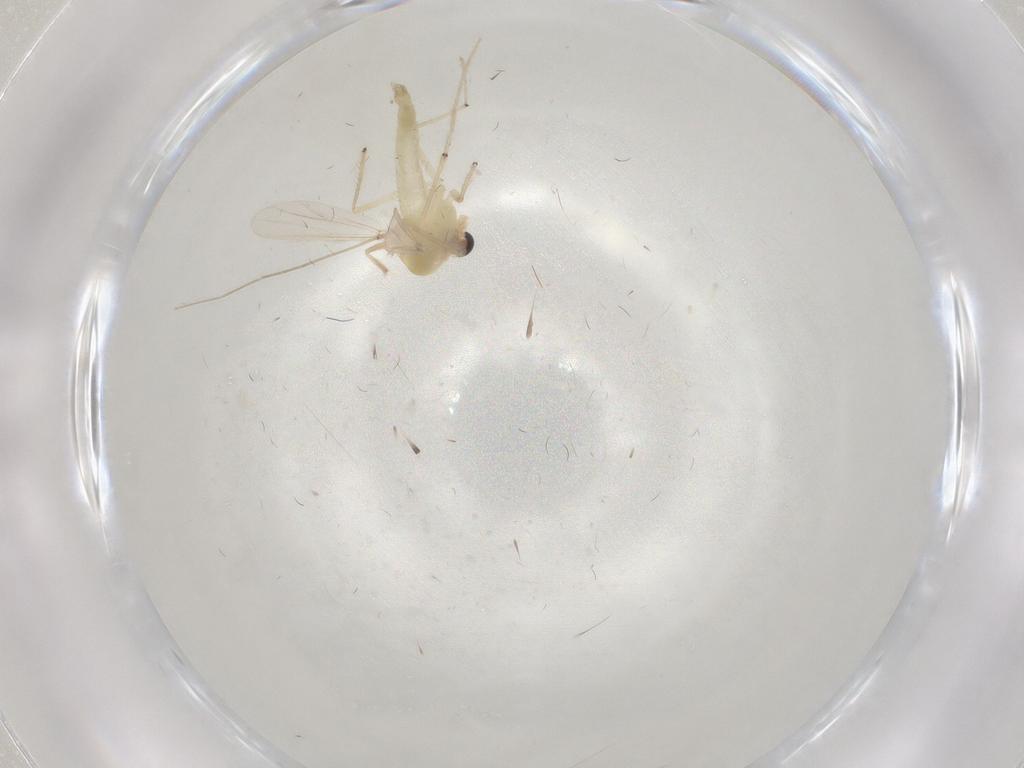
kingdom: Animalia
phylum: Arthropoda
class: Insecta
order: Diptera
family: Chironomidae
